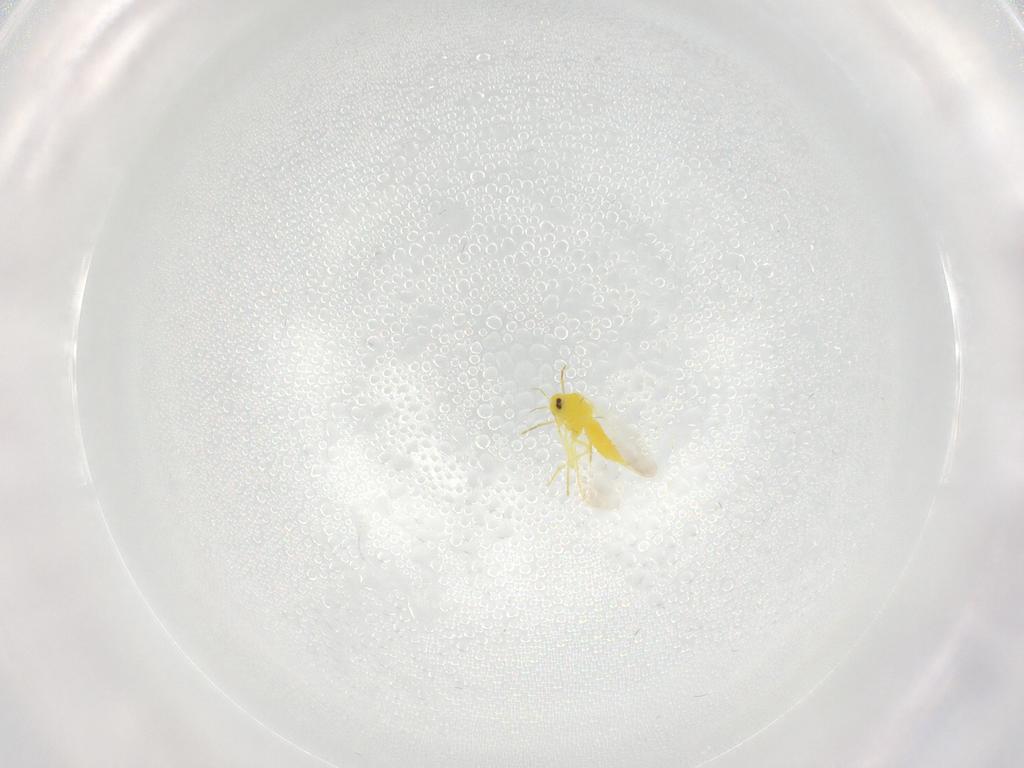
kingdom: Animalia
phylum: Arthropoda
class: Insecta
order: Hemiptera
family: Aleyrodidae
